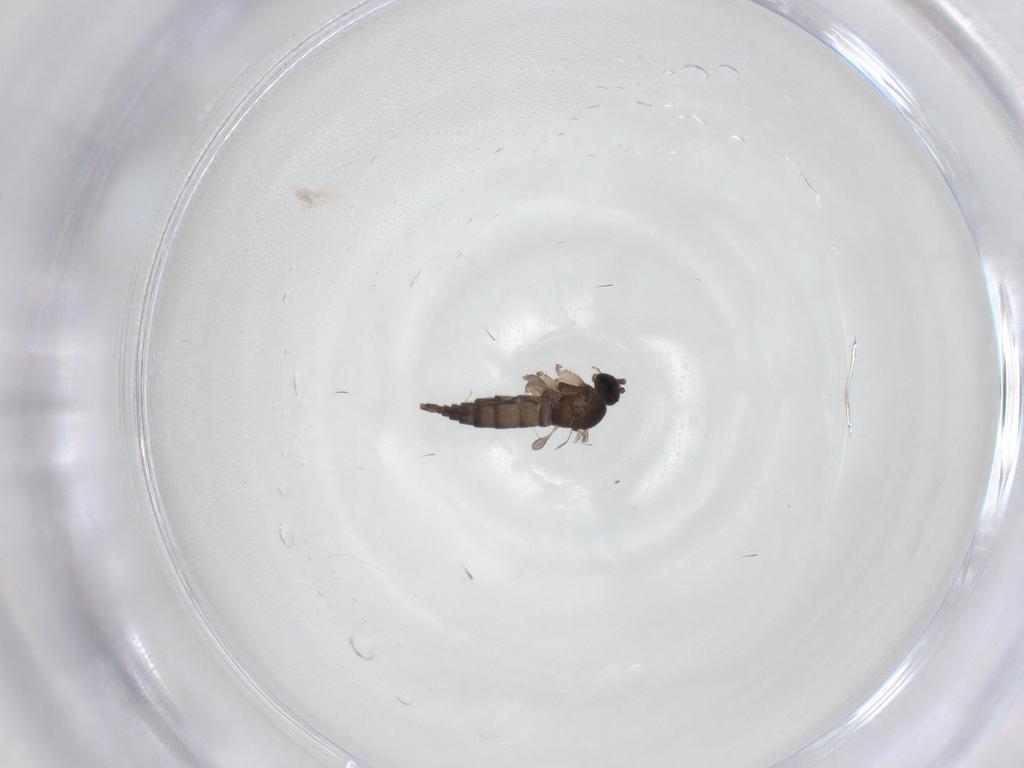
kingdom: Animalia
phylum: Arthropoda
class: Insecta
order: Diptera
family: Sciaridae
